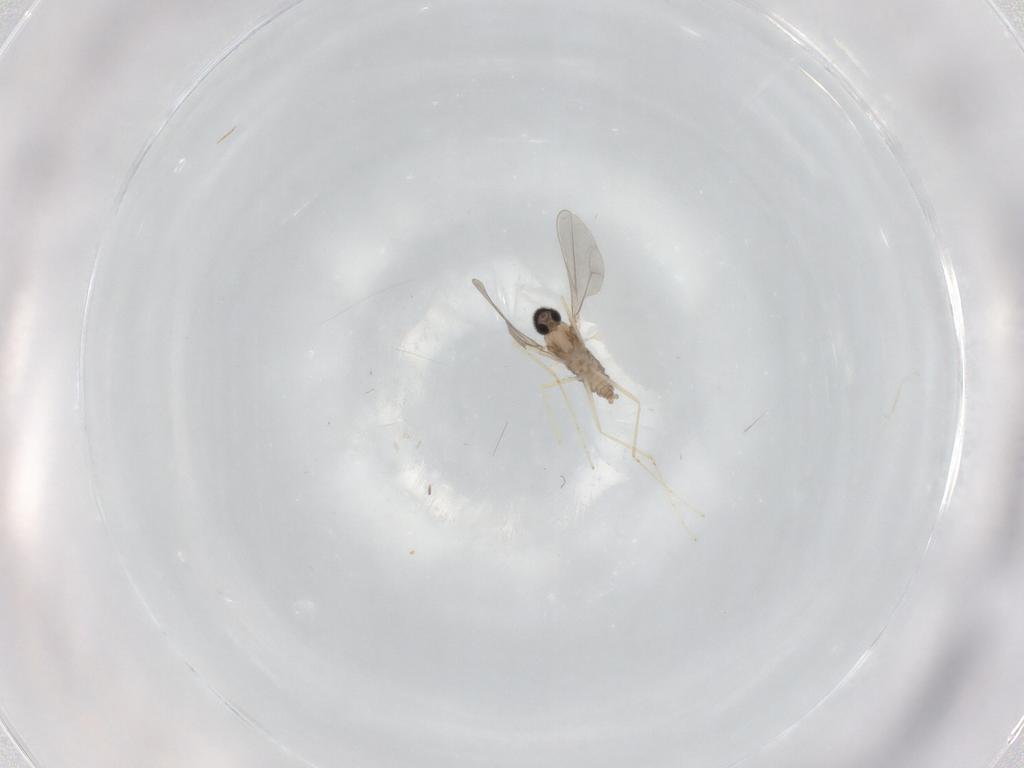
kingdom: Animalia
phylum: Arthropoda
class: Insecta
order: Diptera
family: Cecidomyiidae
